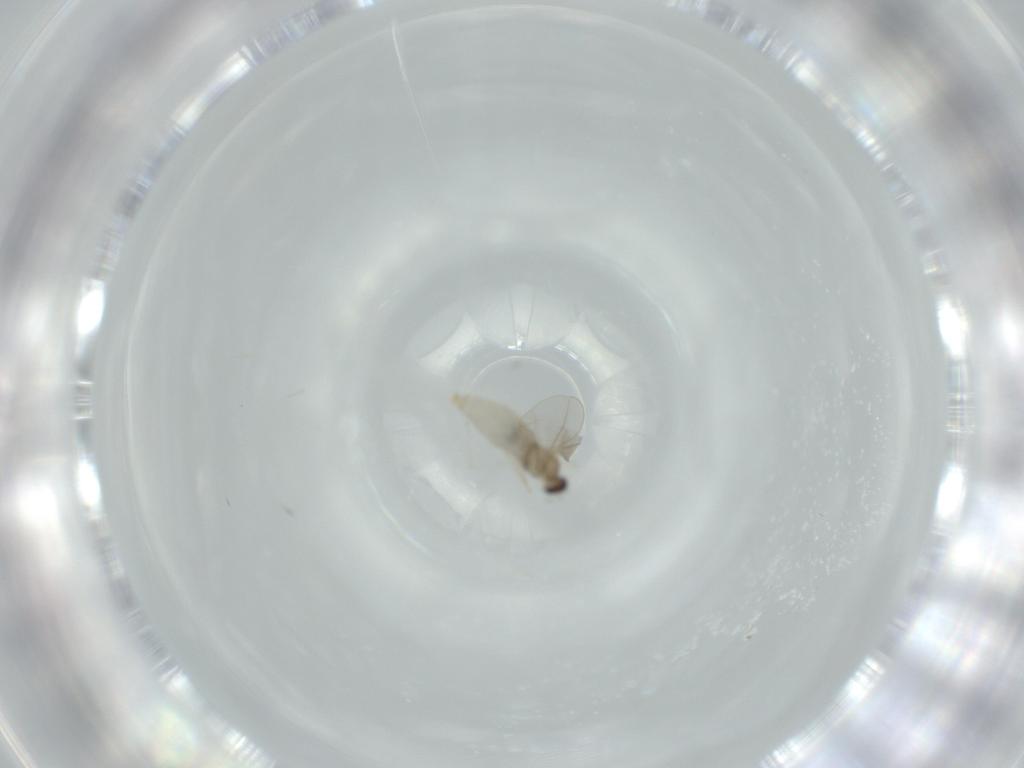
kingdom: Animalia
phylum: Arthropoda
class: Insecta
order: Diptera
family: Cecidomyiidae
